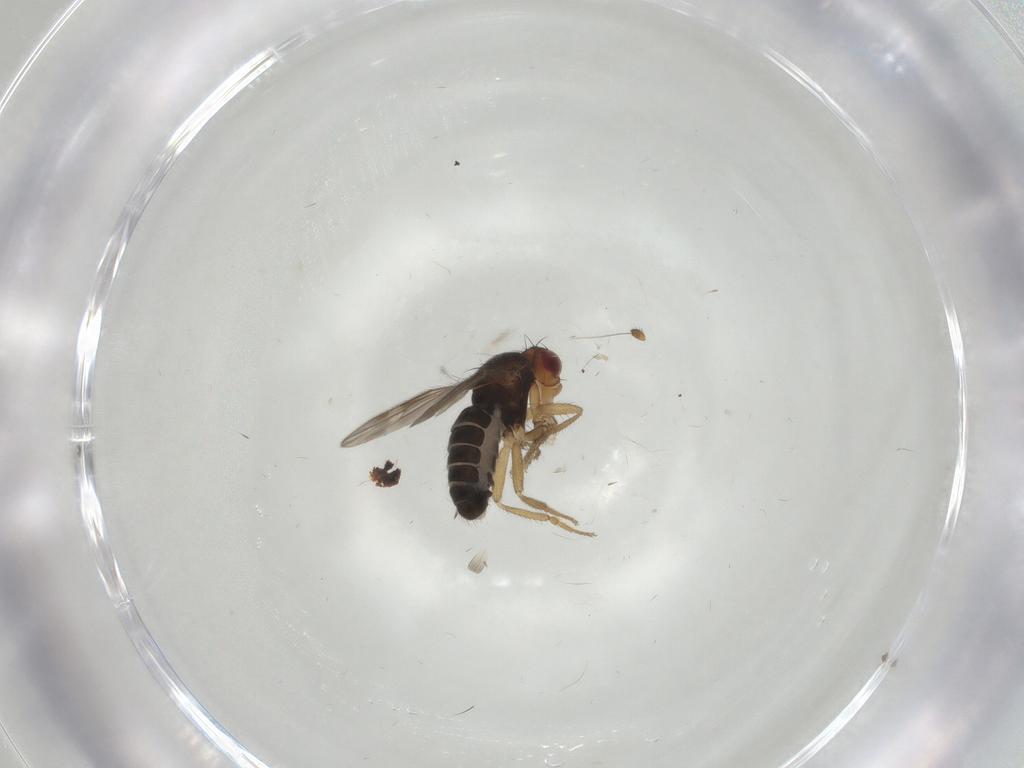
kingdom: Animalia
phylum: Arthropoda
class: Insecta
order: Diptera
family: Sphaeroceridae
